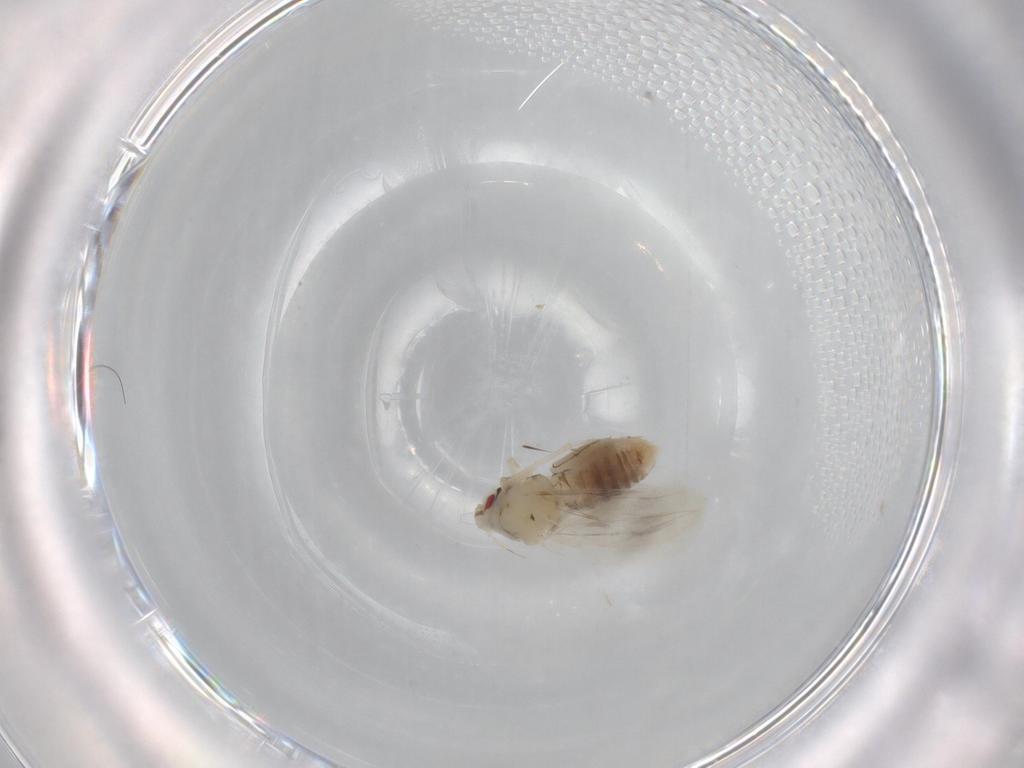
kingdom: Animalia
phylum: Arthropoda
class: Insecta
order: Hemiptera
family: Aleyrodidae
